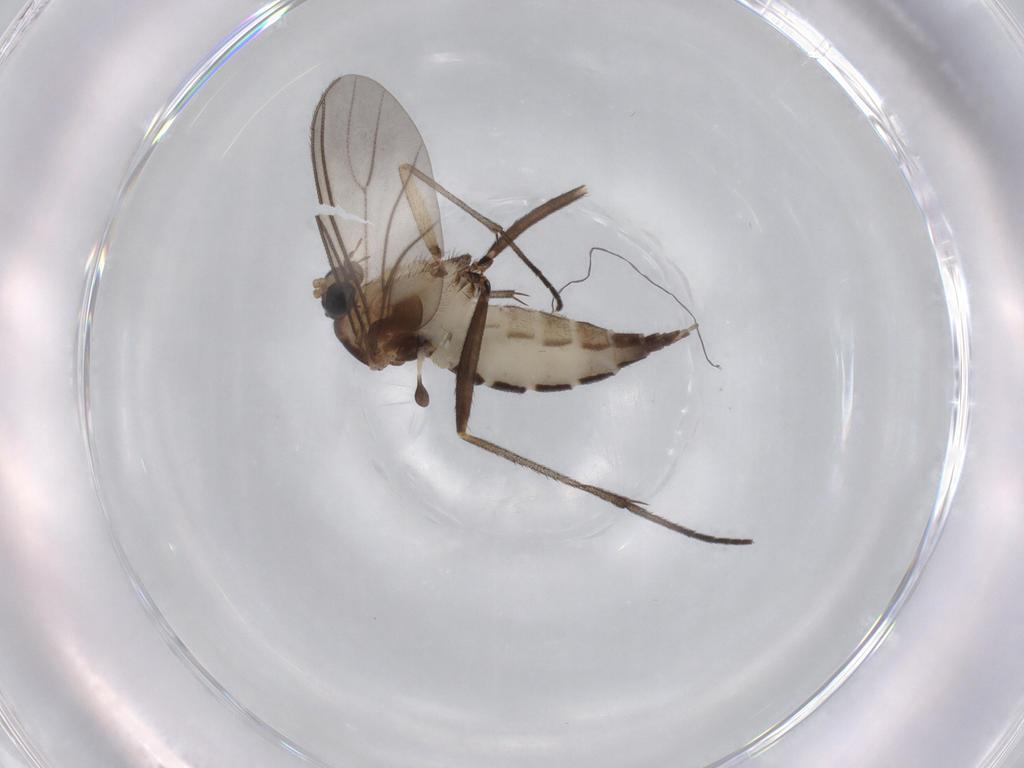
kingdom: Animalia
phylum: Arthropoda
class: Insecta
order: Diptera
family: Sciaridae
